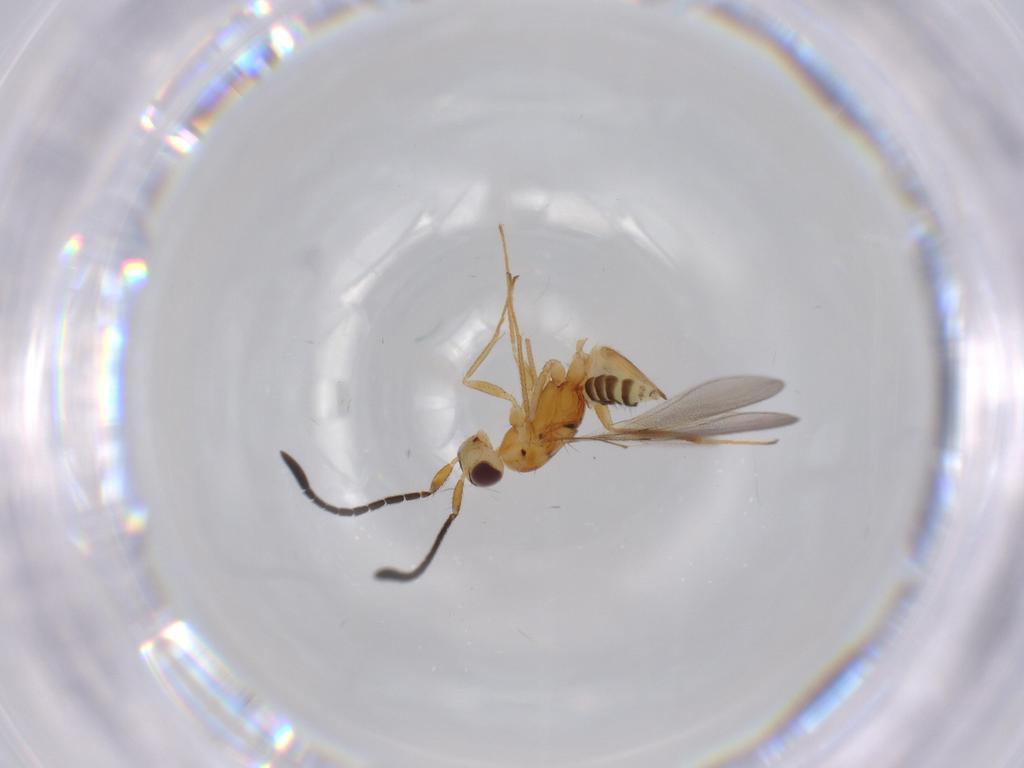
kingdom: Animalia
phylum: Arthropoda
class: Insecta
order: Hymenoptera
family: Mymaridae
